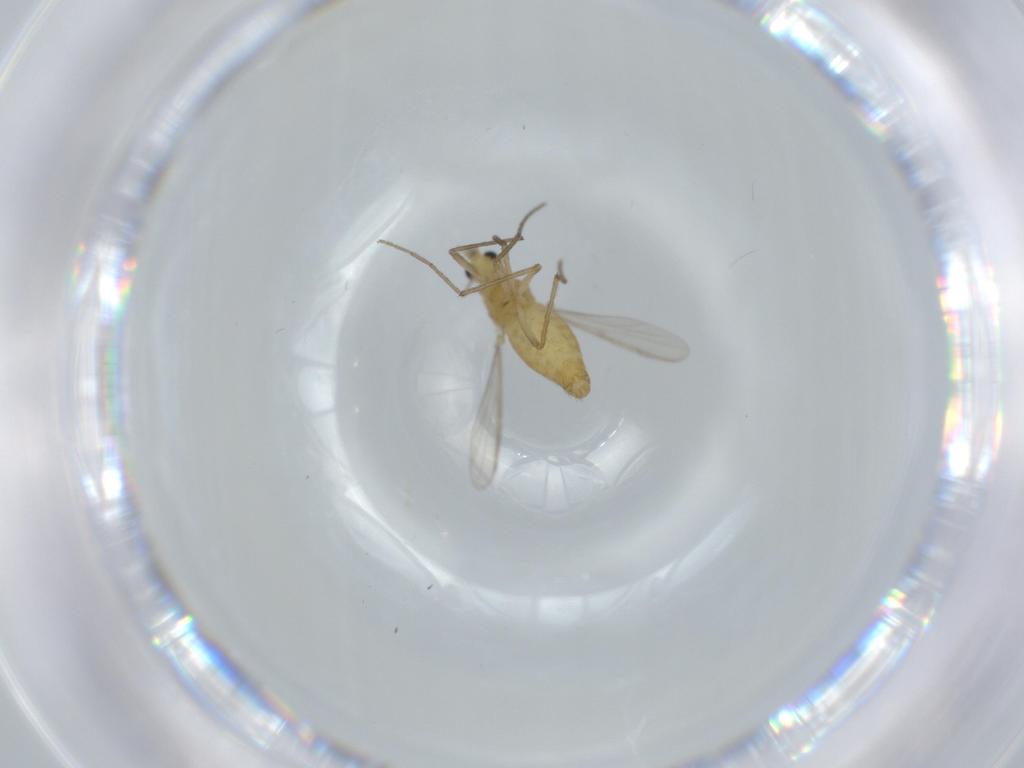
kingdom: Animalia
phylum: Arthropoda
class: Insecta
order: Diptera
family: Chironomidae
